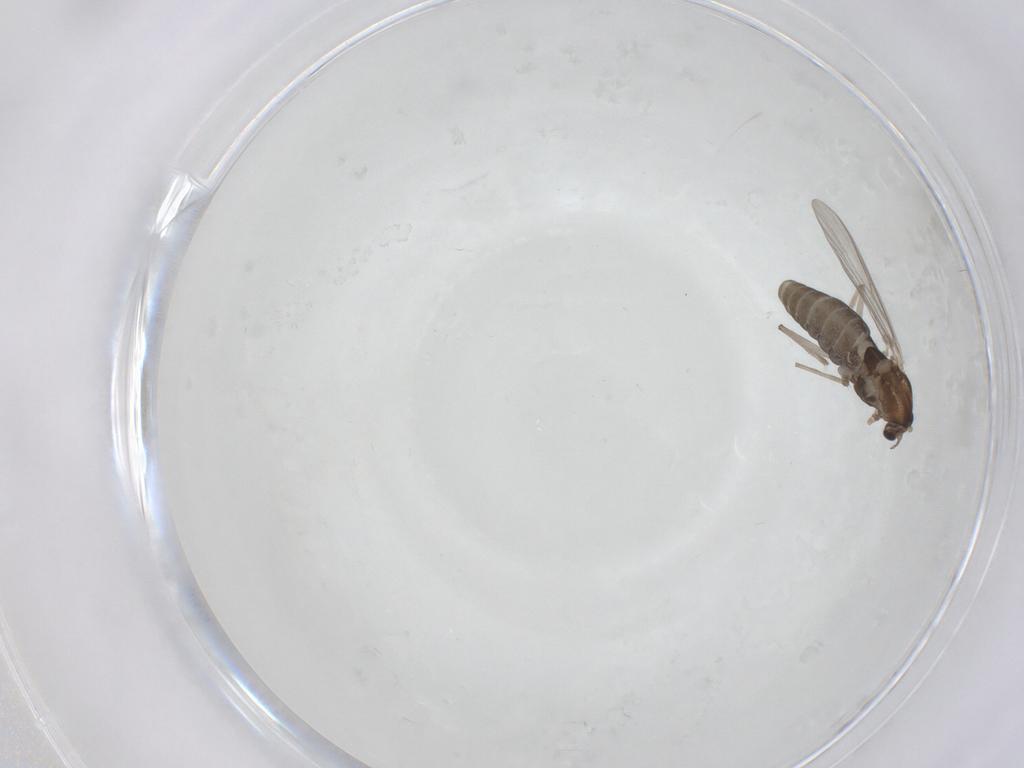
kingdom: Animalia
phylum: Arthropoda
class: Insecta
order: Diptera
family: Chironomidae
